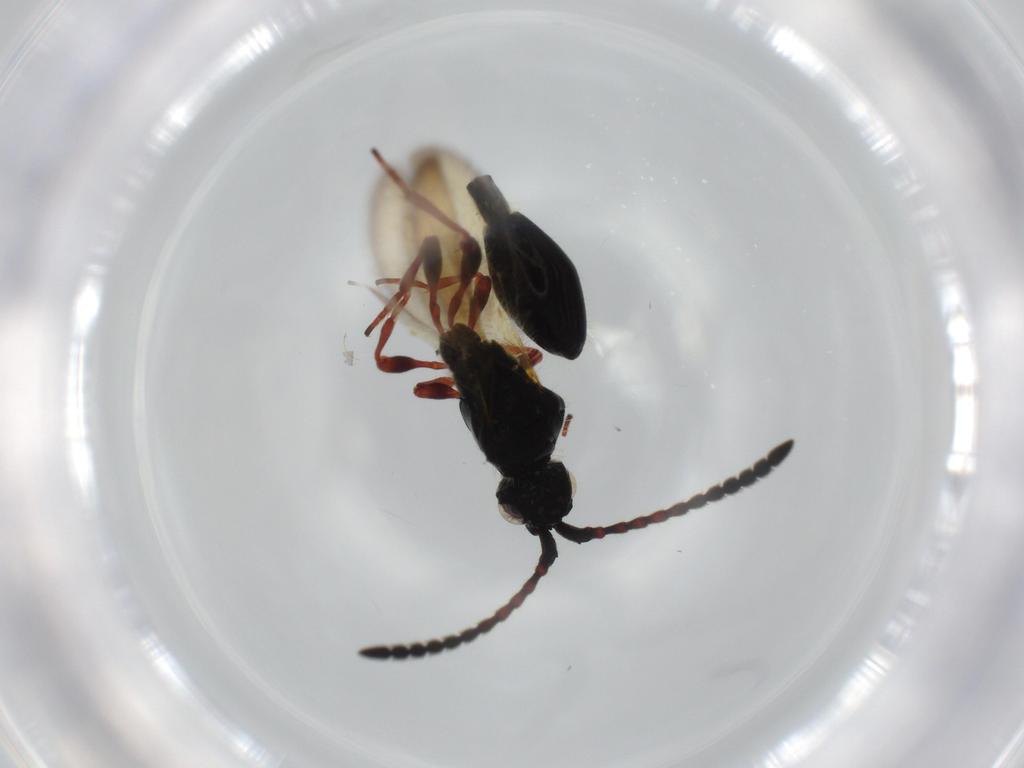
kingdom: Animalia
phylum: Arthropoda
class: Insecta
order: Hymenoptera
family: Diapriidae
